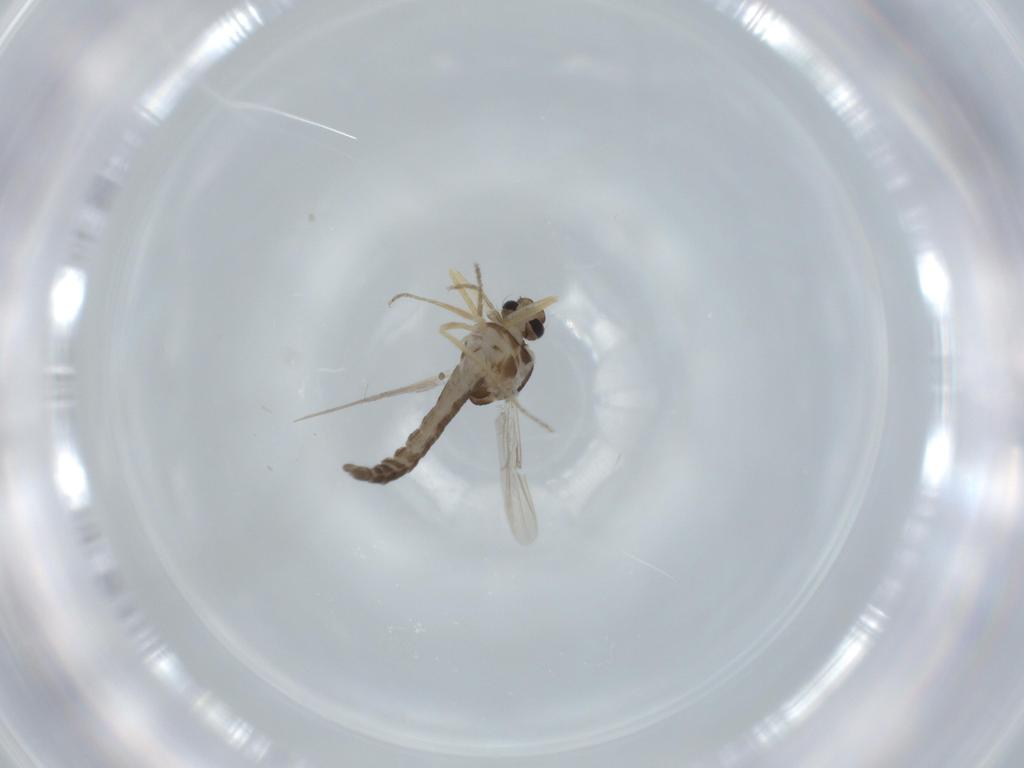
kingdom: Animalia
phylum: Arthropoda
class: Insecta
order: Diptera
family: Ceratopogonidae
